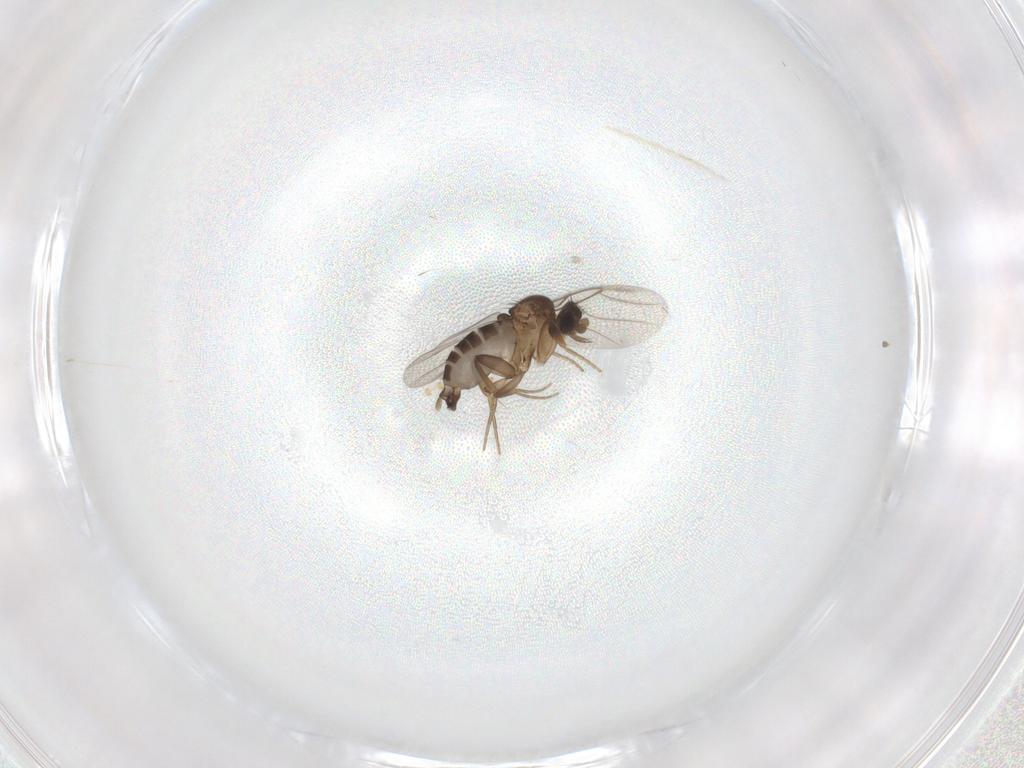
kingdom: Animalia
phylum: Arthropoda
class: Insecta
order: Diptera
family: Phoridae
